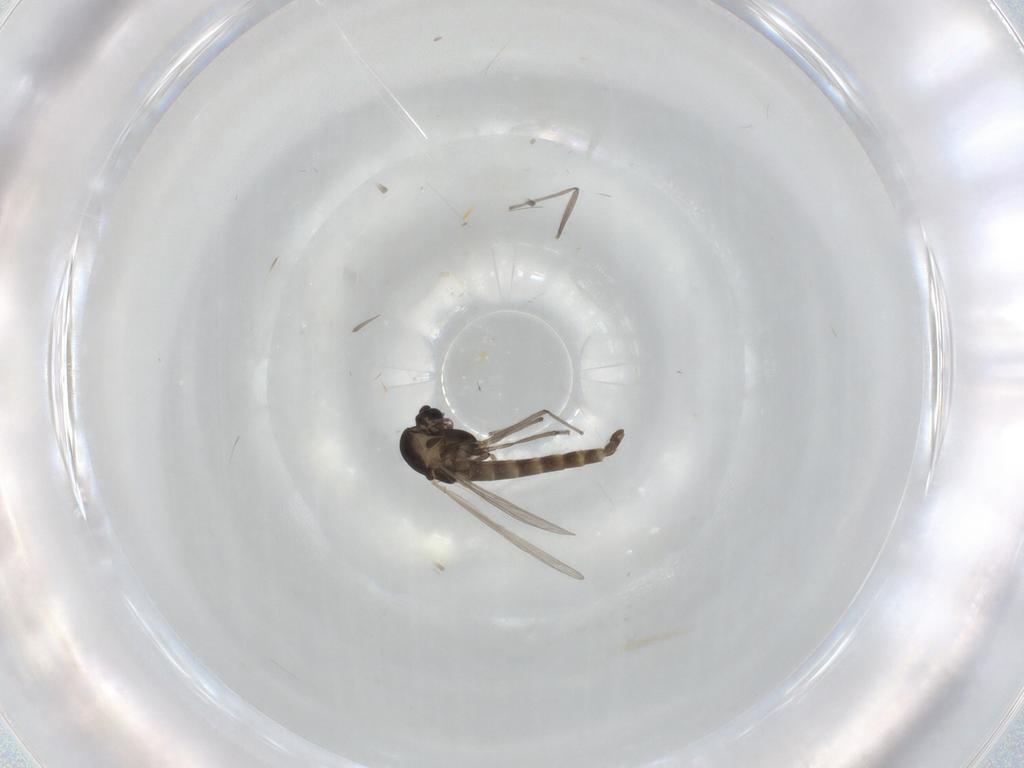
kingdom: Animalia
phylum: Arthropoda
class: Insecta
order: Diptera
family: Chironomidae
